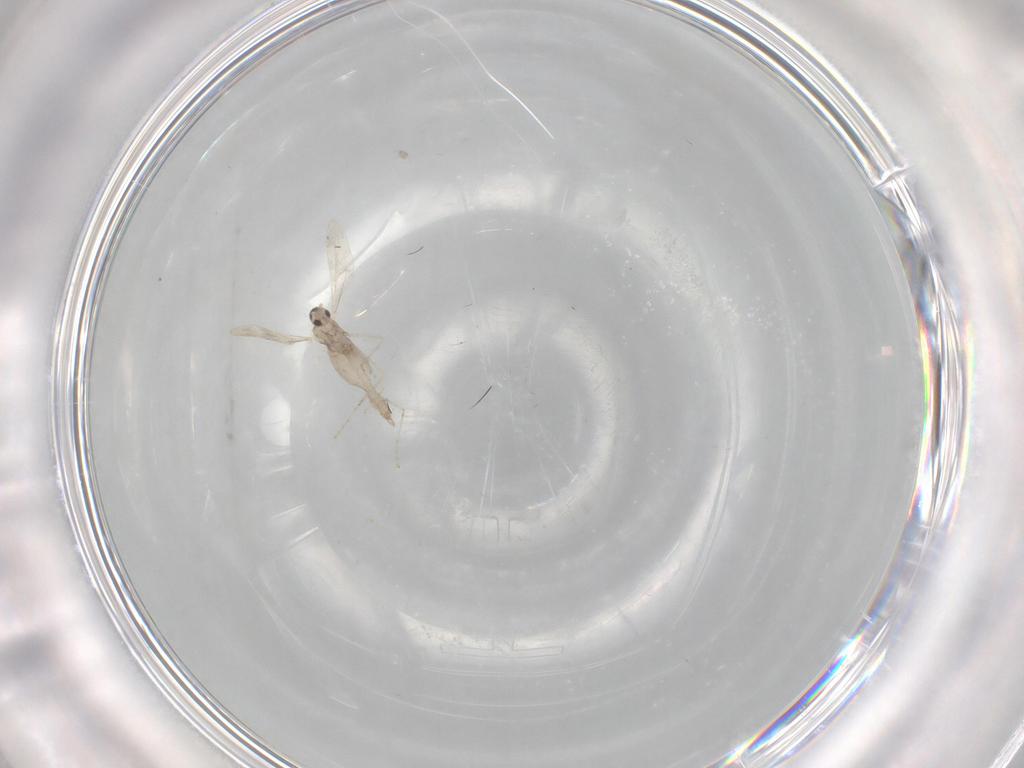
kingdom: Animalia
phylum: Arthropoda
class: Insecta
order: Diptera
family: Cecidomyiidae
